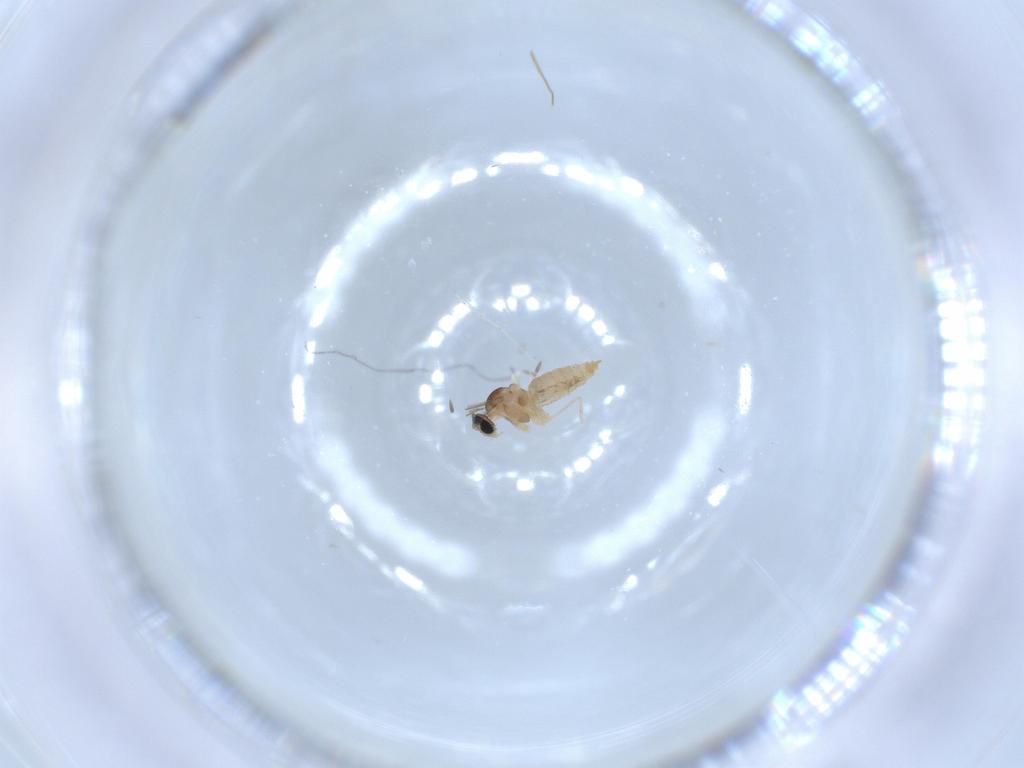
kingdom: Animalia
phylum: Arthropoda
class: Insecta
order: Diptera
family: Cecidomyiidae
